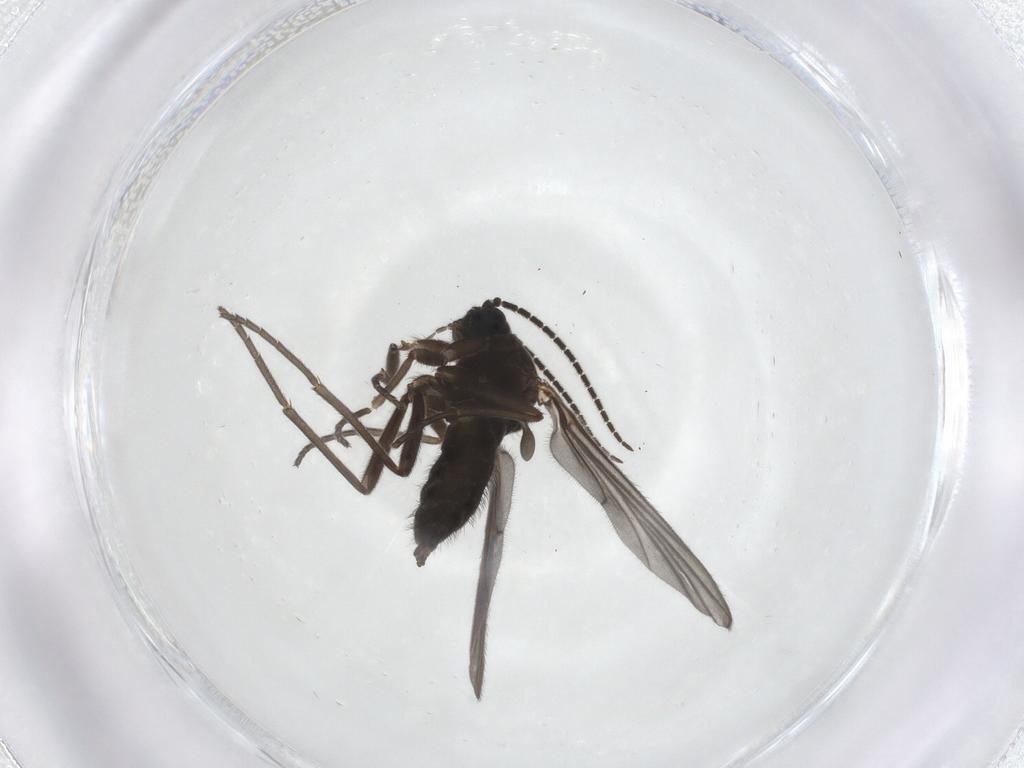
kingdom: Animalia
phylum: Arthropoda
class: Insecta
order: Diptera
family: Sciaridae
